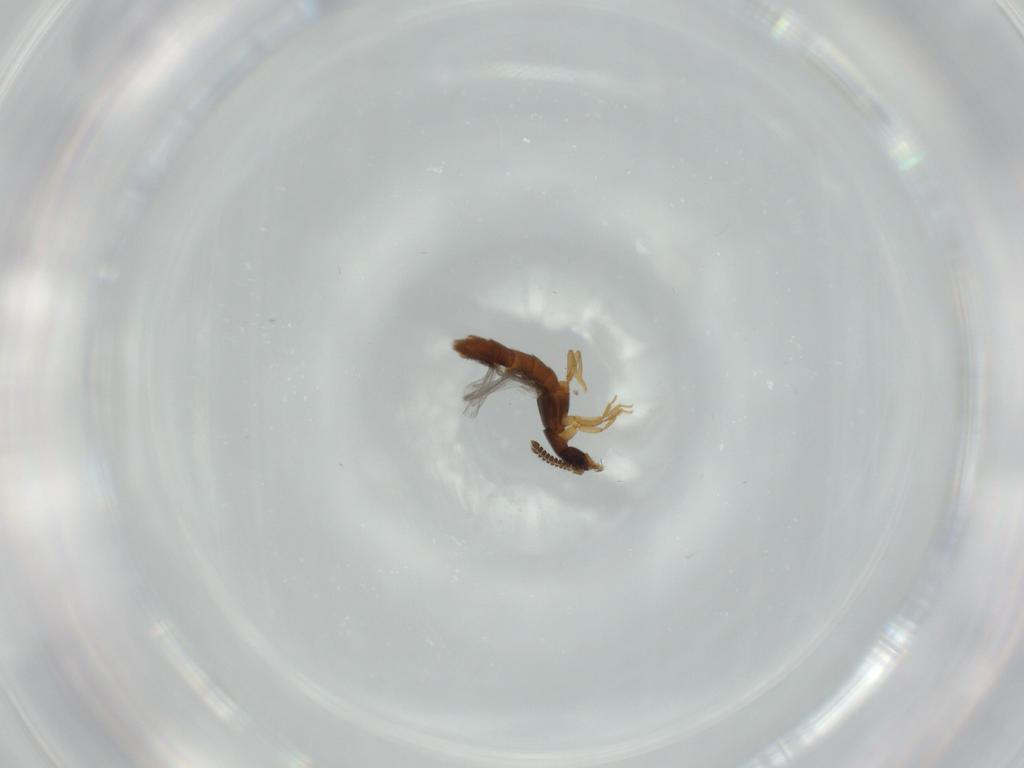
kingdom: Animalia
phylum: Arthropoda
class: Insecta
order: Coleoptera
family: Staphylinidae
